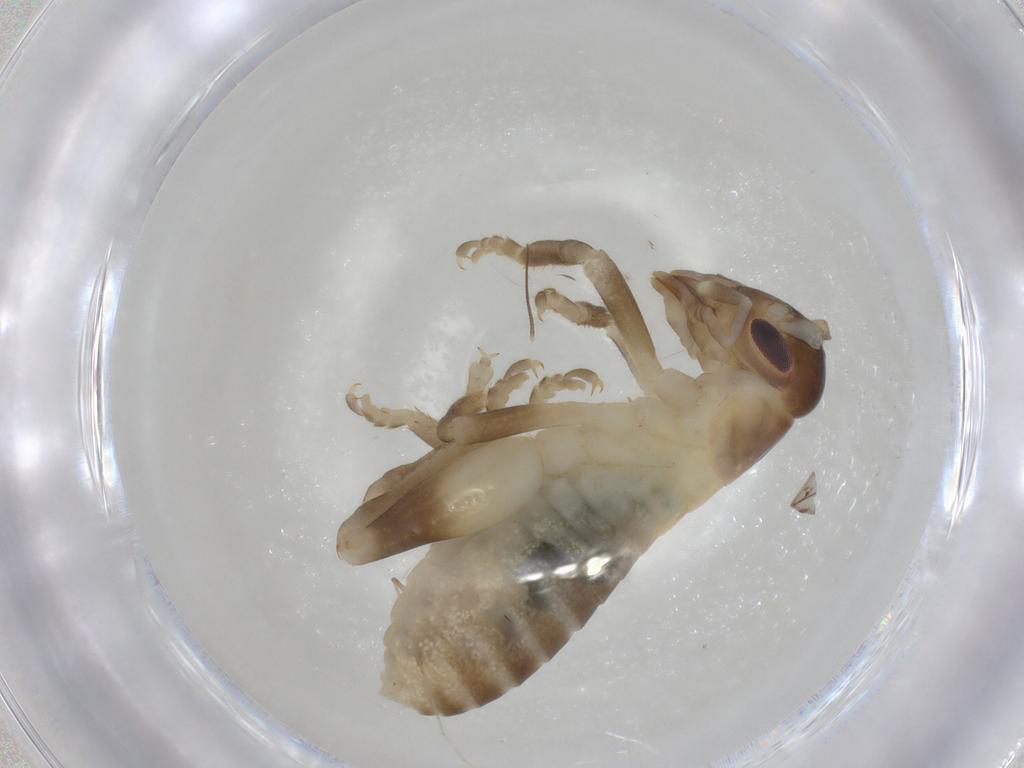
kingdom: Animalia
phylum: Arthropoda
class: Insecta
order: Orthoptera
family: Gryllacrididae
